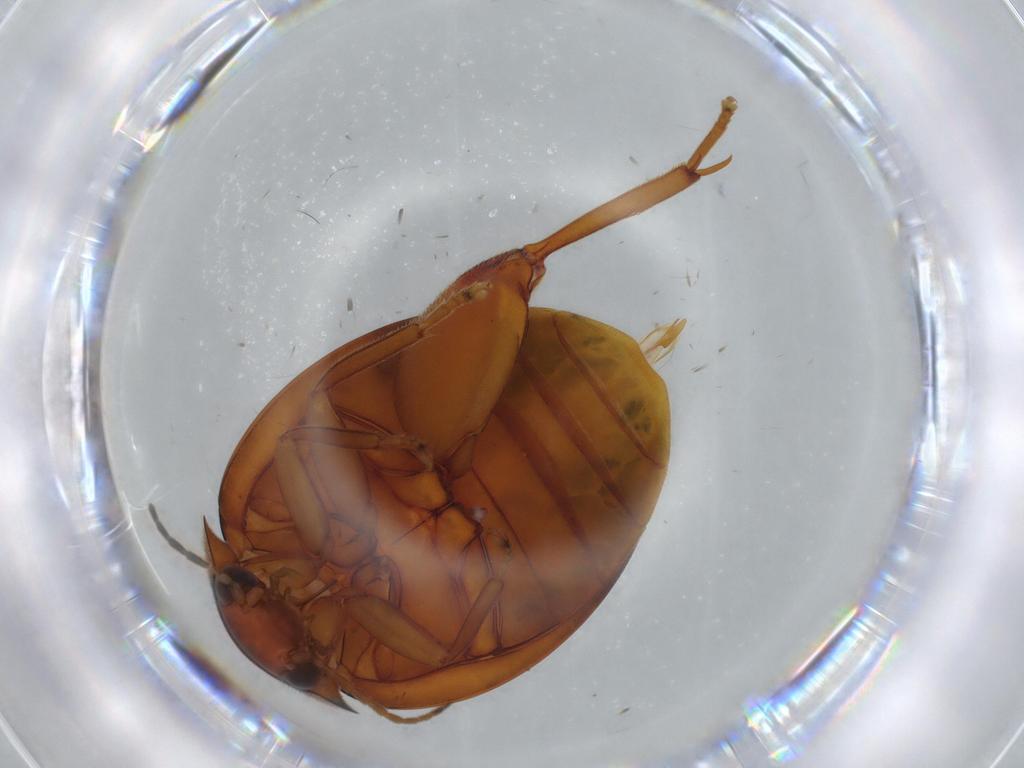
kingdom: Animalia
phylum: Arthropoda
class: Insecta
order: Coleoptera
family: Scirtidae
